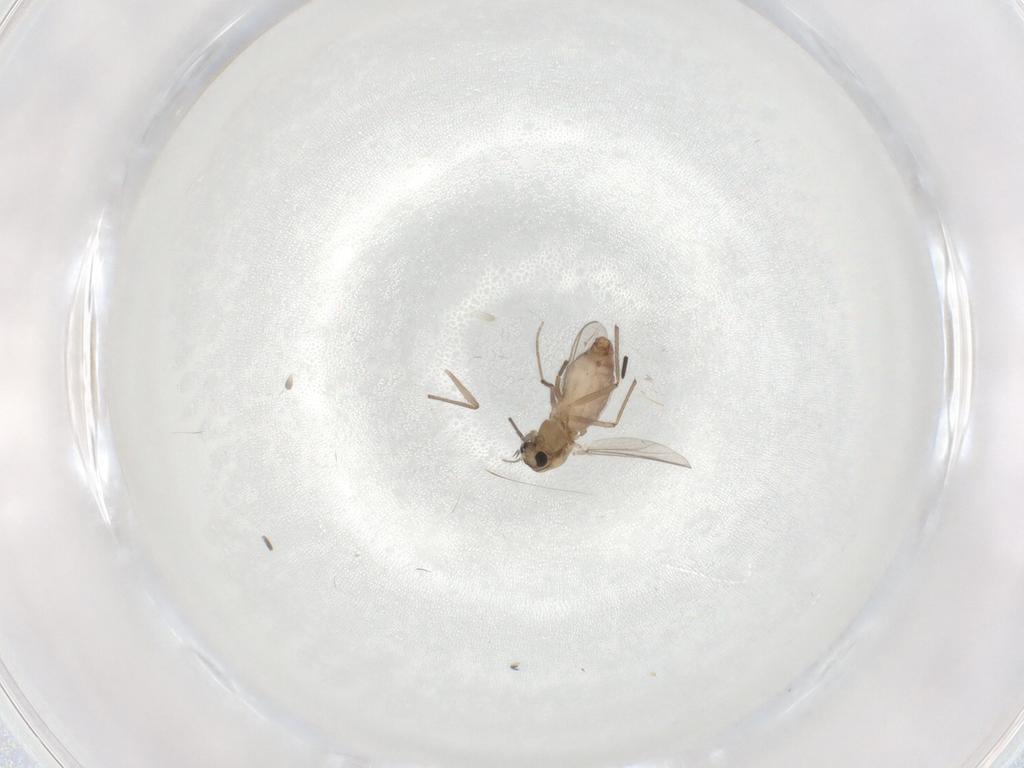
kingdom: Animalia
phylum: Arthropoda
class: Insecta
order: Diptera
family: Chironomidae
